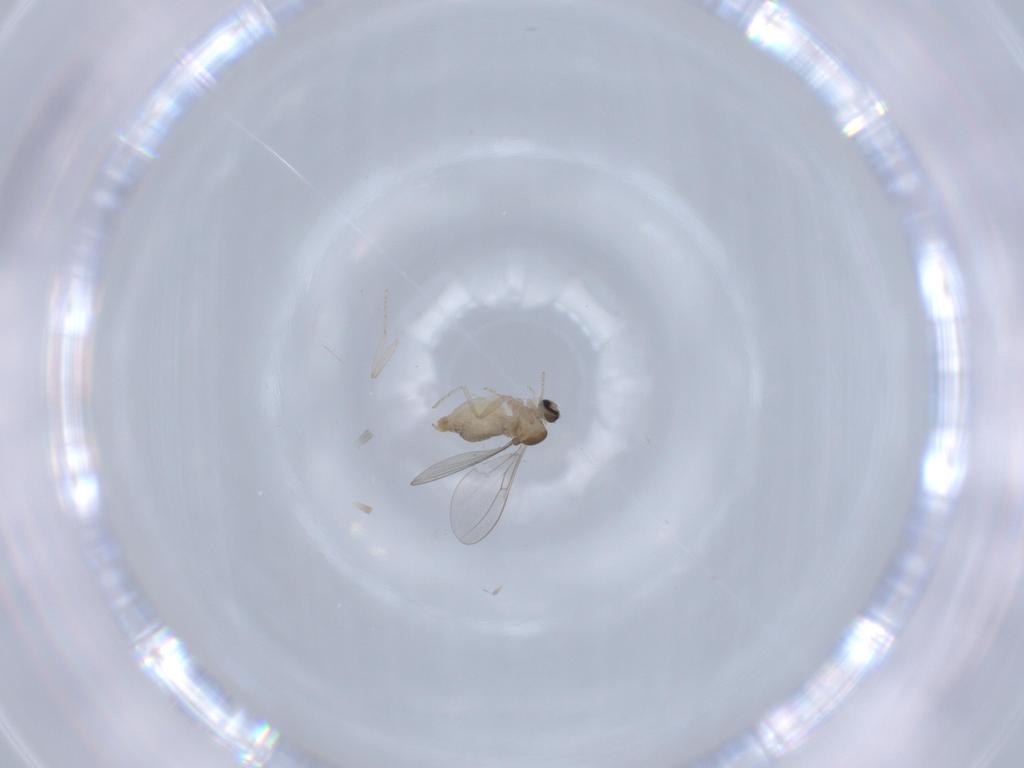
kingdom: Animalia
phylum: Arthropoda
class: Insecta
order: Diptera
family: Cecidomyiidae
